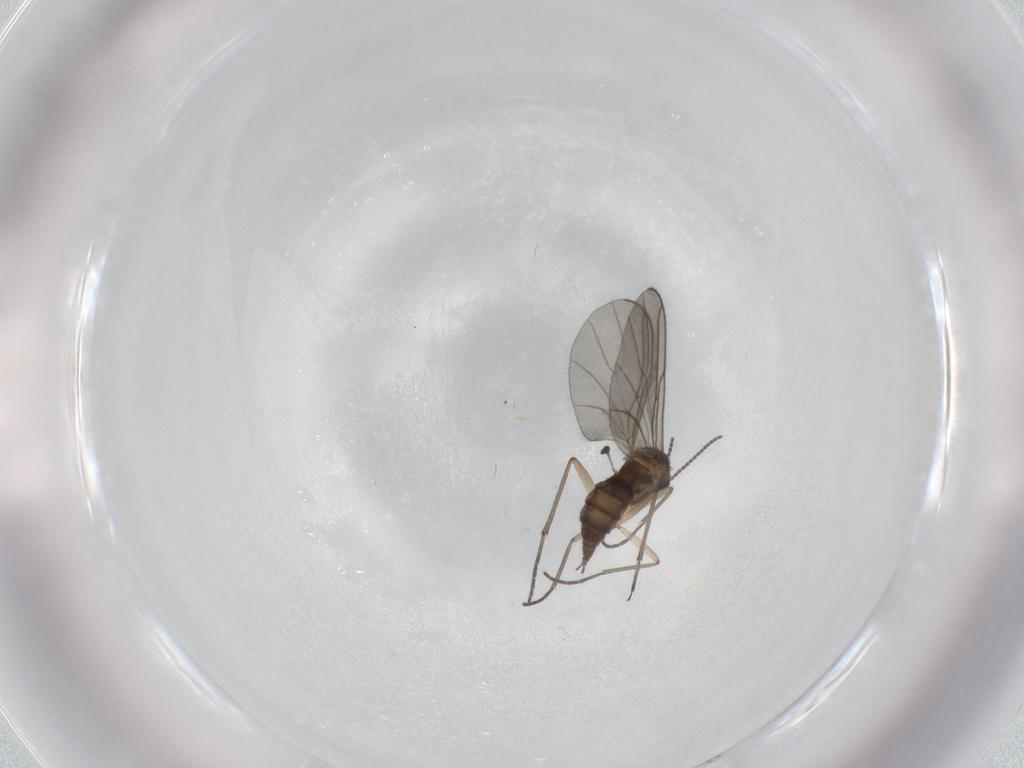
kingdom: Animalia
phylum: Arthropoda
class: Insecta
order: Diptera
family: Sciaridae
